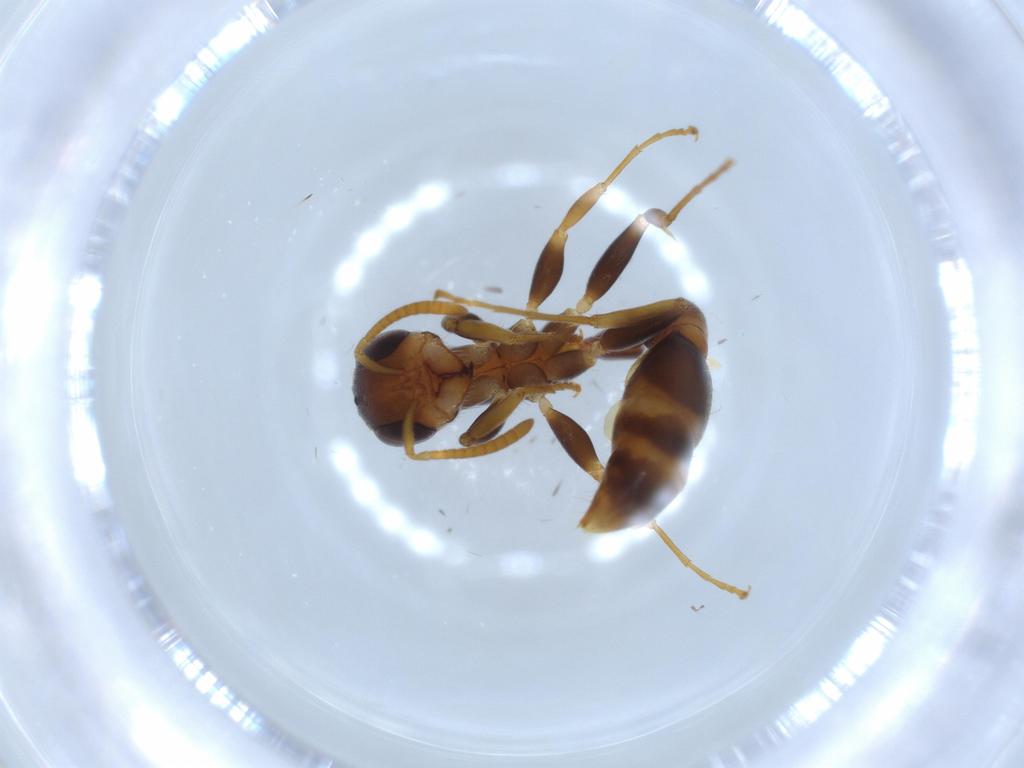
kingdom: Animalia
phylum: Arthropoda
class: Insecta
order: Hymenoptera
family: Formicidae
